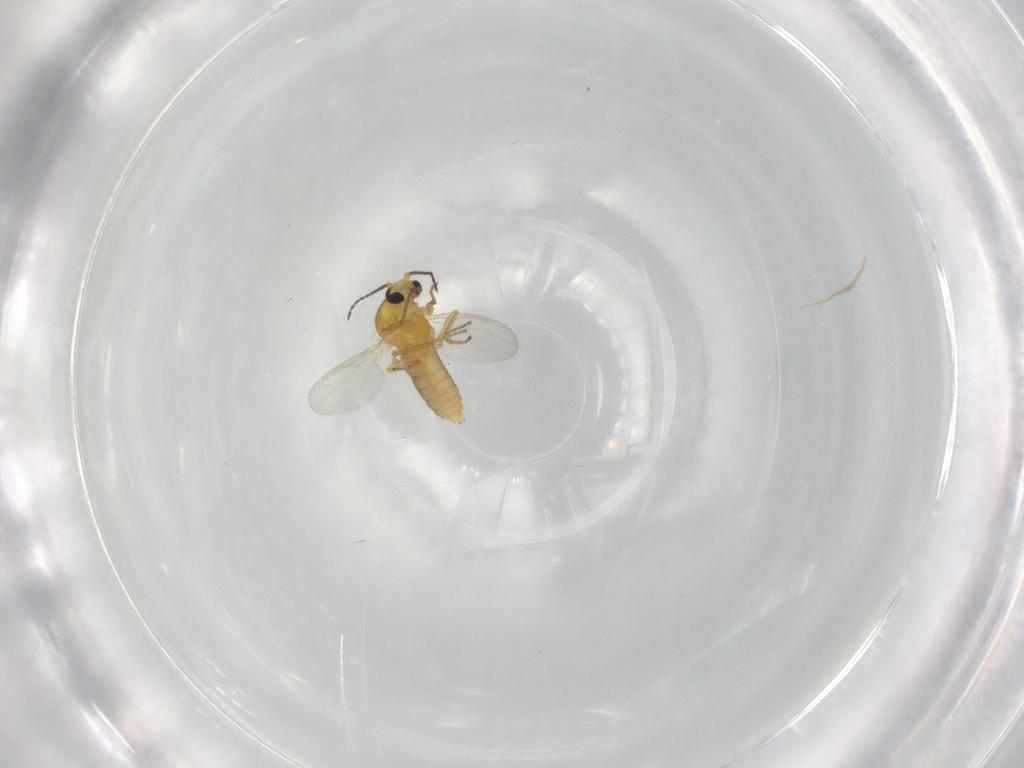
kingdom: Animalia
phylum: Arthropoda
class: Insecta
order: Diptera
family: Ceratopogonidae
